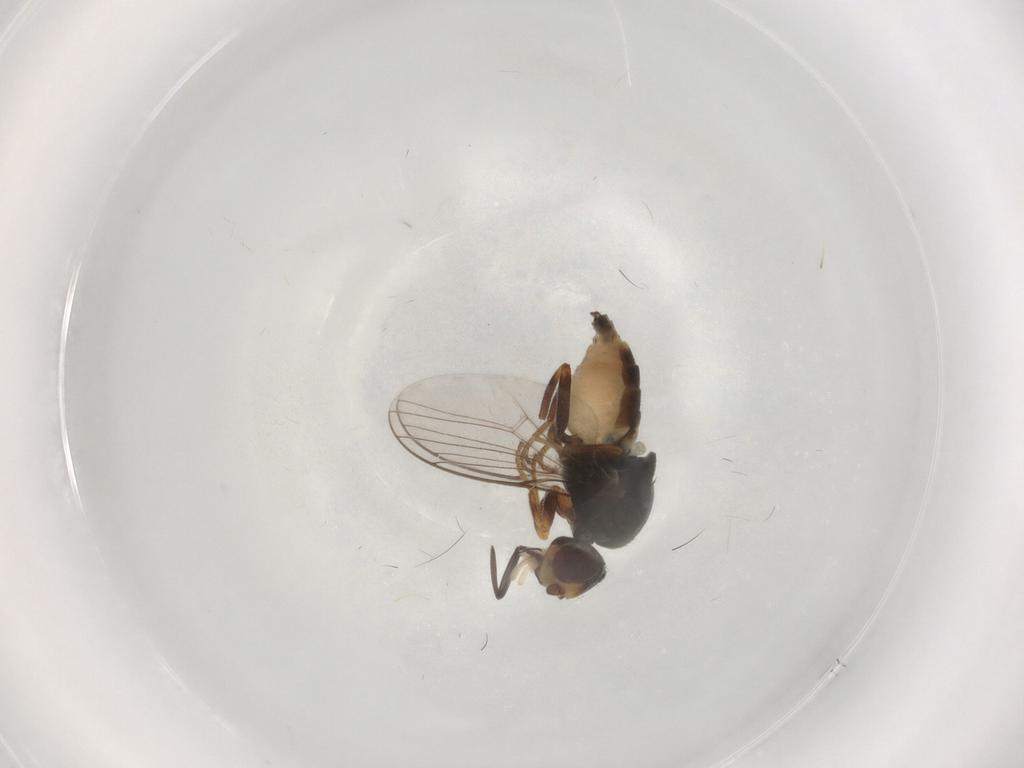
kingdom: Animalia
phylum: Arthropoda
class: Insecta
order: Diptera
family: Chloropidae
